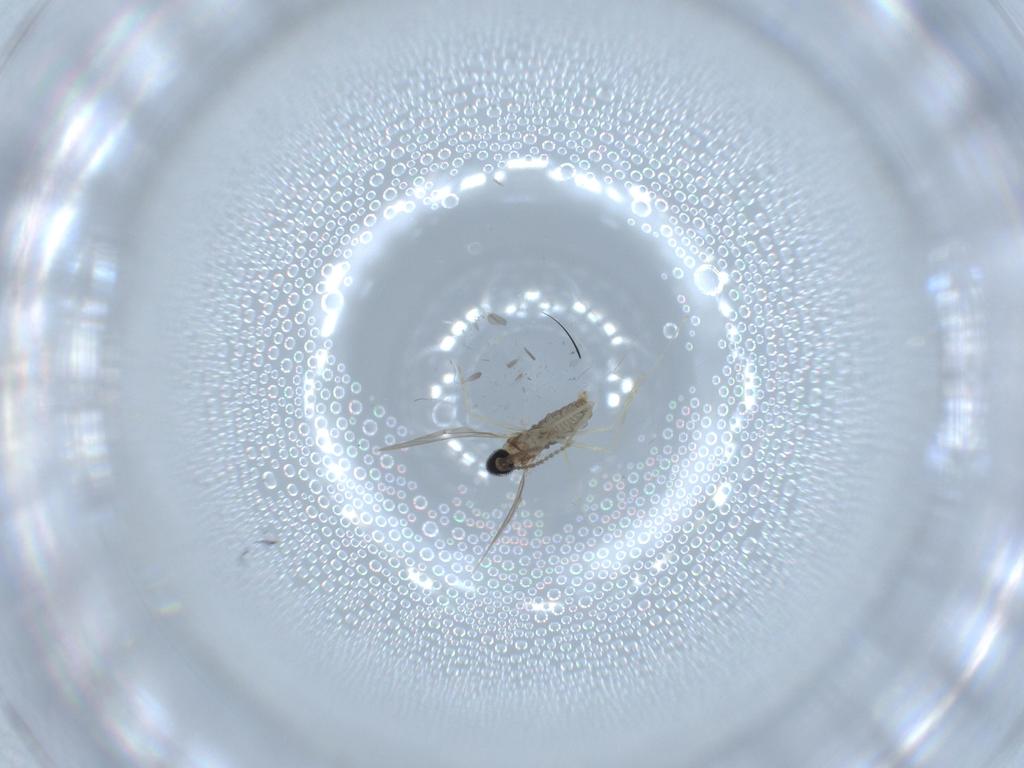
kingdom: Animalia
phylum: Arthropoda
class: Insecta
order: Diptera
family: Cecidomyiidae
